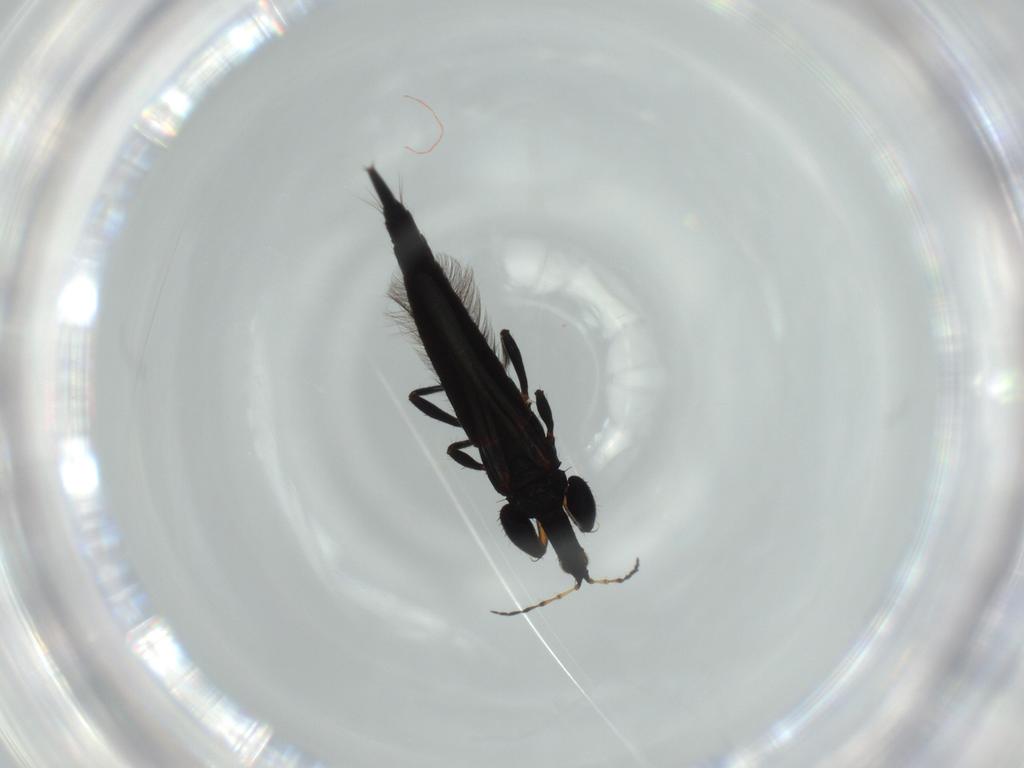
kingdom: Animalia
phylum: Arthropoda
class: Insecta
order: Thysanoptera
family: Phlaeothripidae
